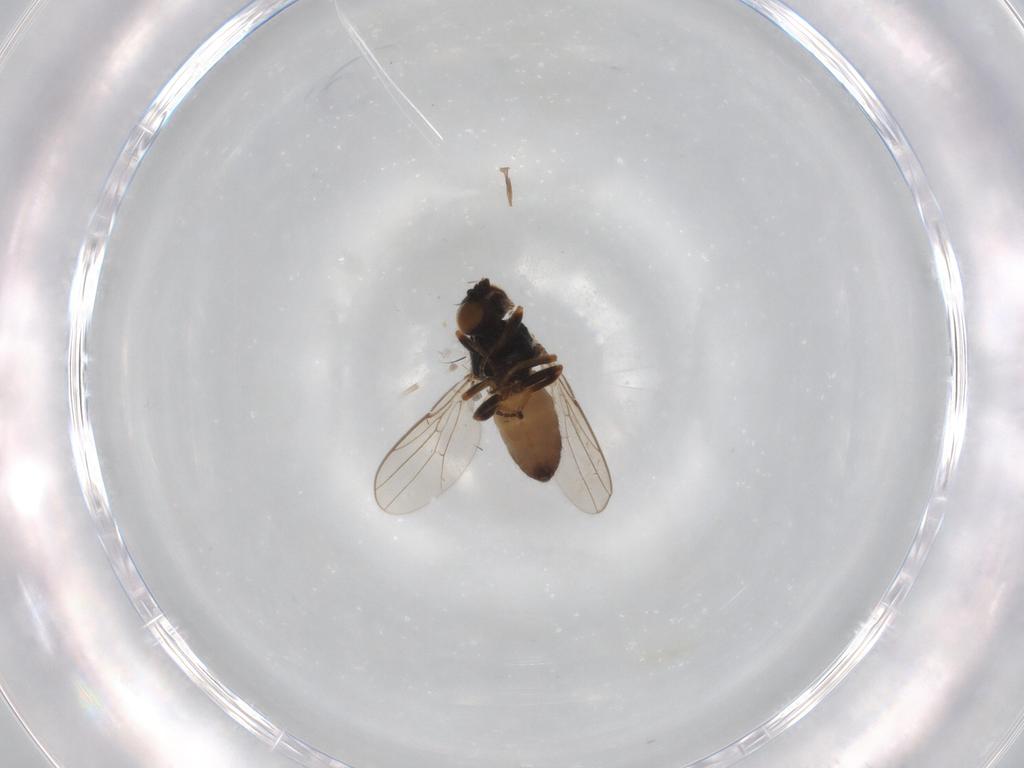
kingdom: Animalia
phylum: Arthropoda
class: Insecta
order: Diptera
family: Chloropidae
